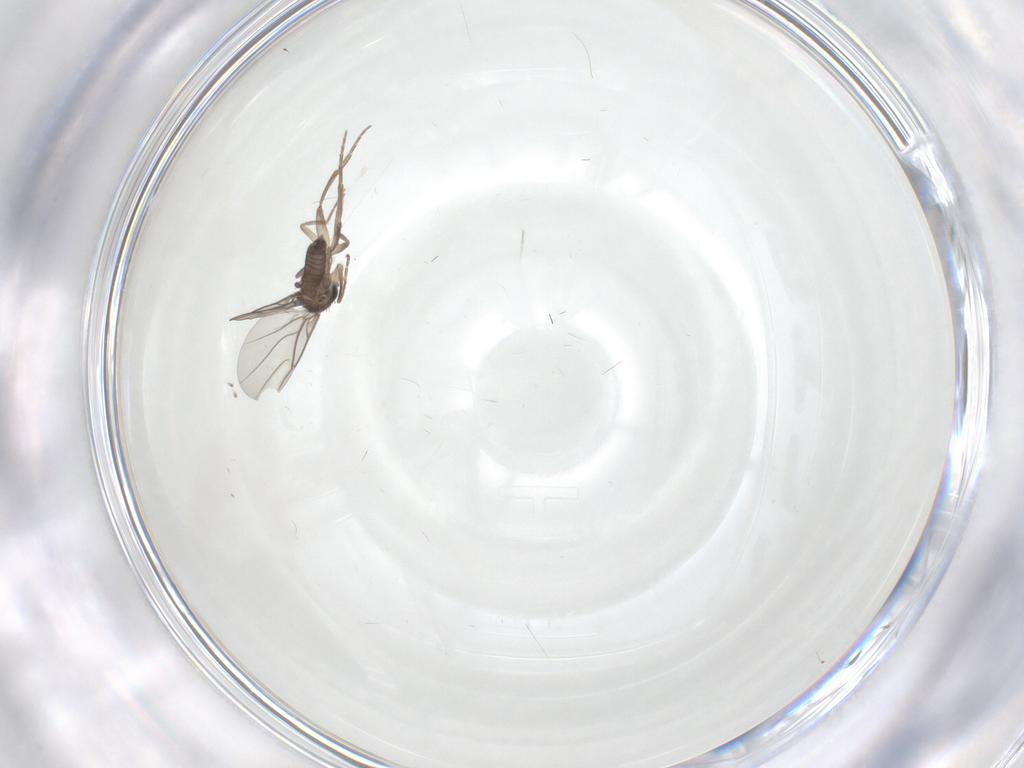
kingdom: Animalia
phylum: Arthropoda
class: Insecta
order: Diptera
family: Phoridae
